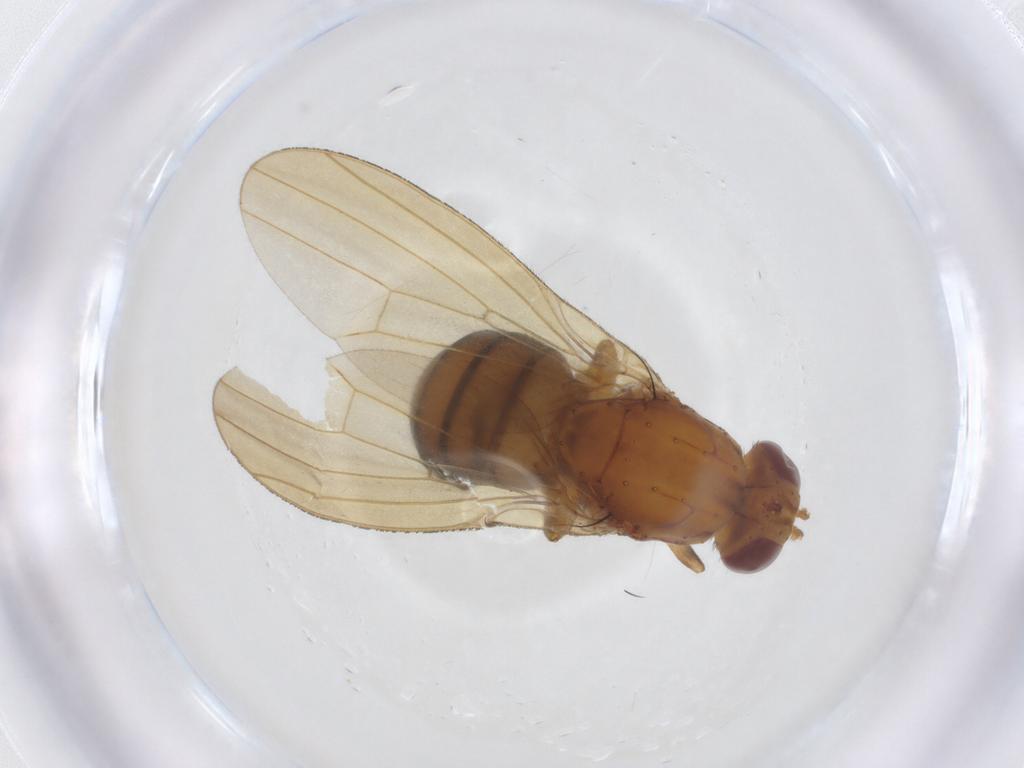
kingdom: Animalia
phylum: Arthropoda
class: Insecta
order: Diptera
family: Lauxaniidae
